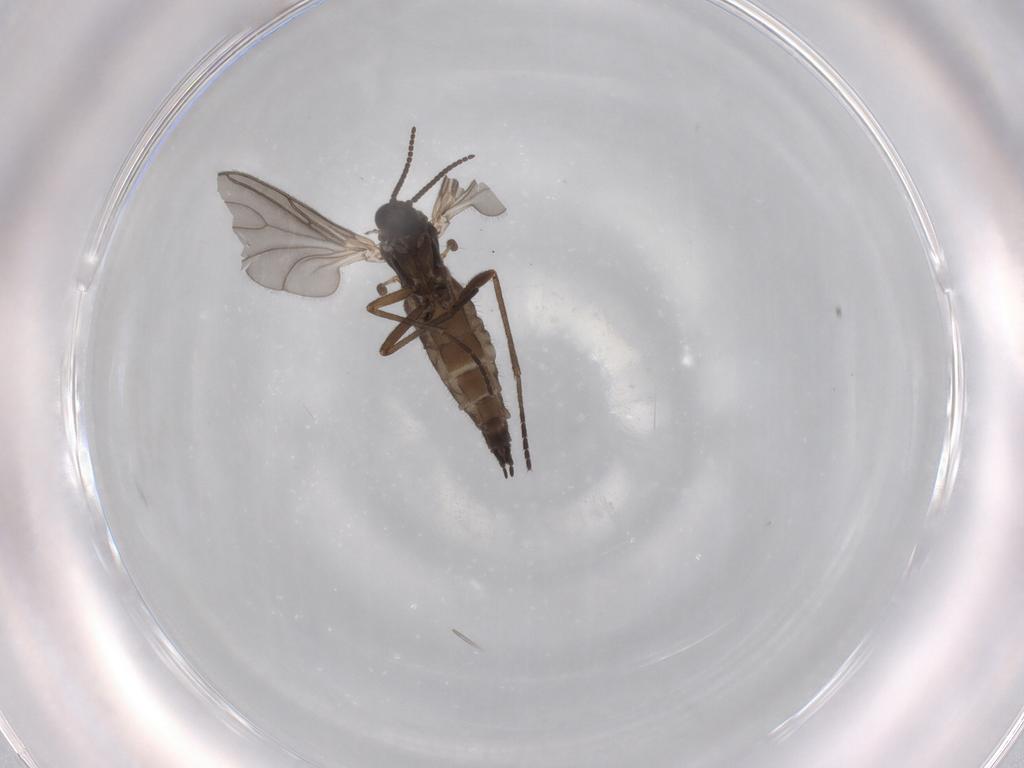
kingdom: Animalia
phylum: Arthropoda
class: Insecta
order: Diptera
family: Sciaridae
